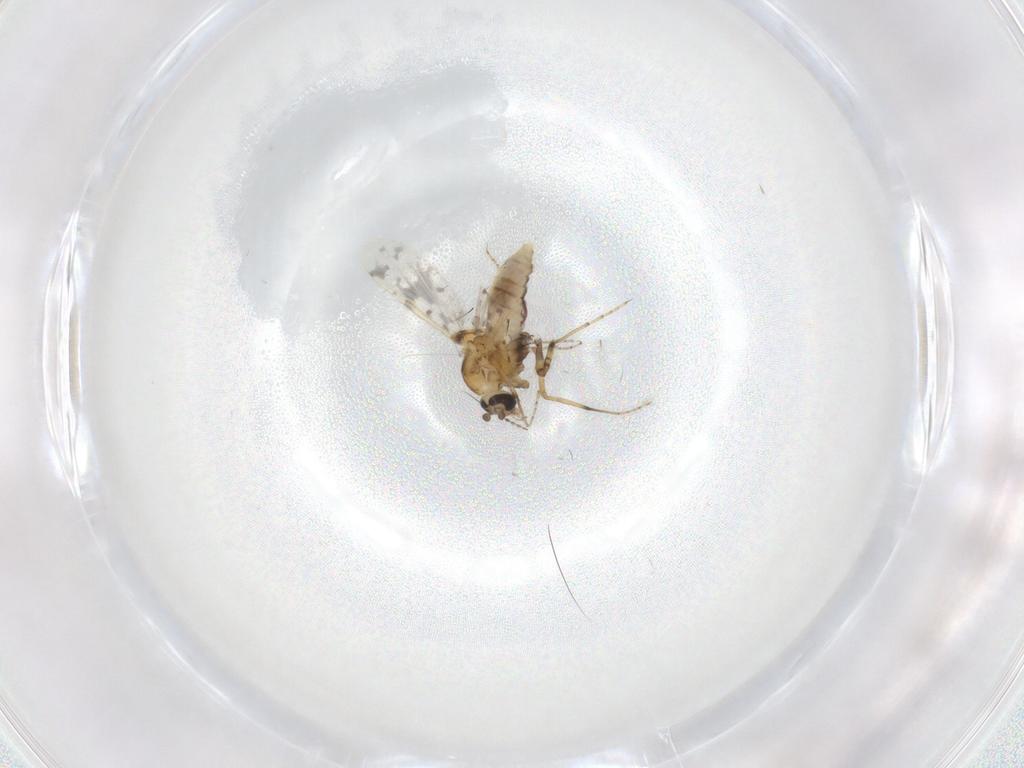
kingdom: Animalia
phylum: Arthropoda
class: Insecta
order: Diptera
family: Ceratopogonidae
